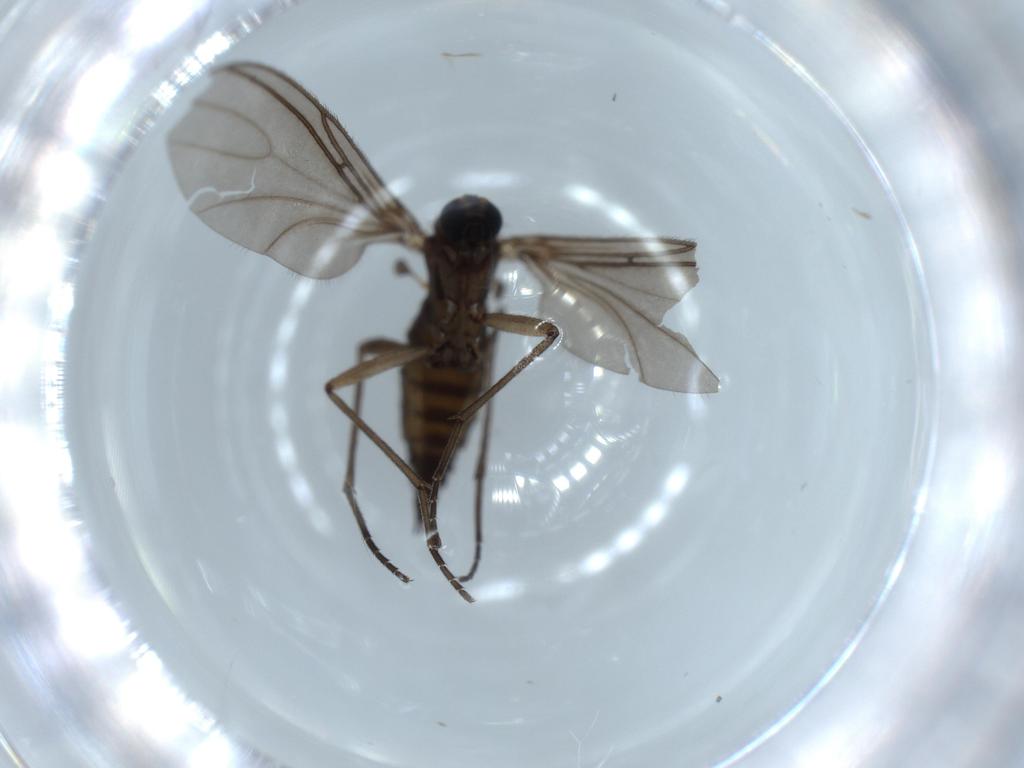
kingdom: Animalia
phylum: Arthropoda
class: Insecta
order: Diptera
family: Sciaridae
